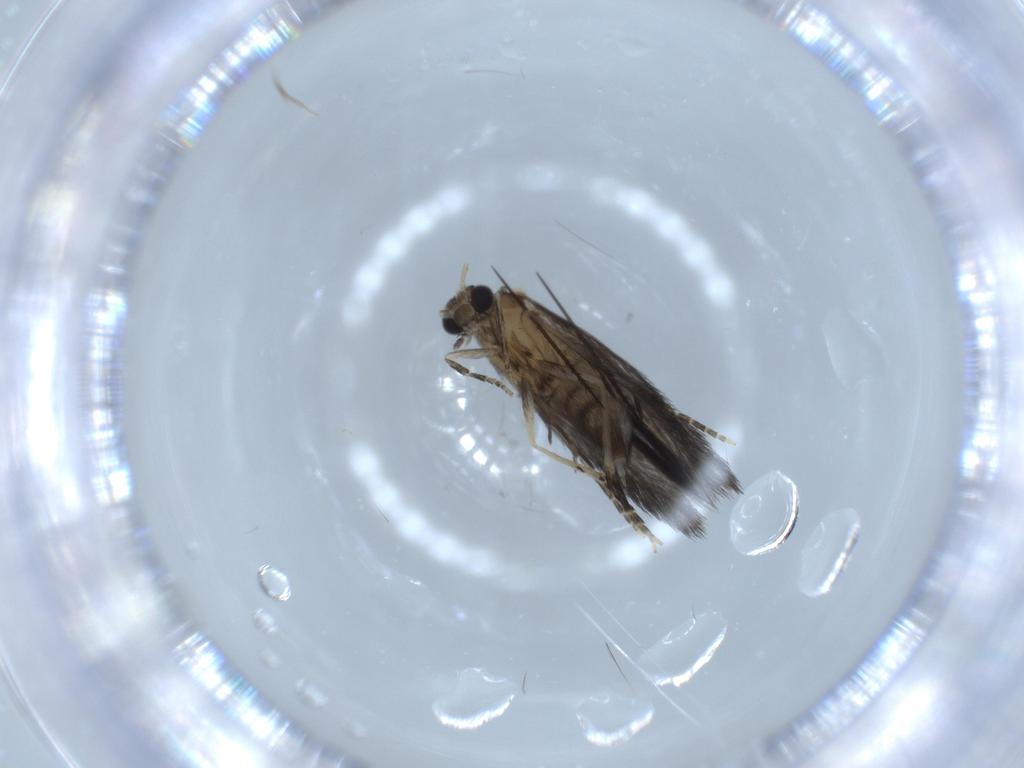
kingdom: Animalia
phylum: Arthropoda
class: Insecta
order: Trichoptera
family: Hydroptilidae
